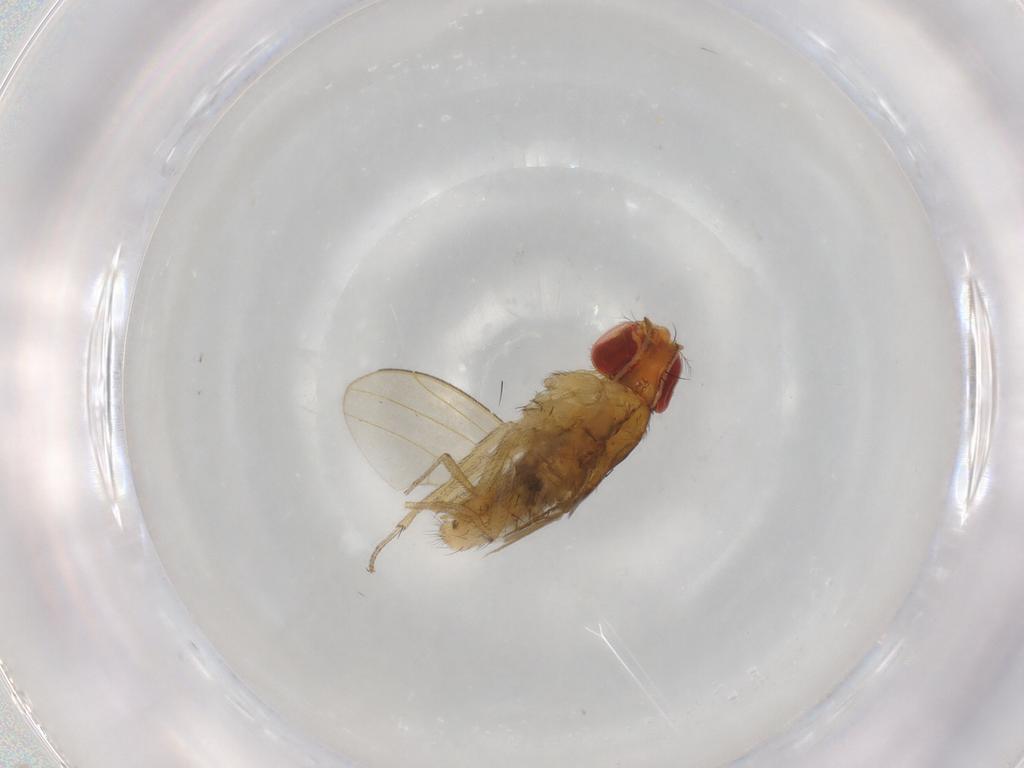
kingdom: Animalia
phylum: Arthropoda
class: Insecta
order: Diptera
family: Drosophilidae
